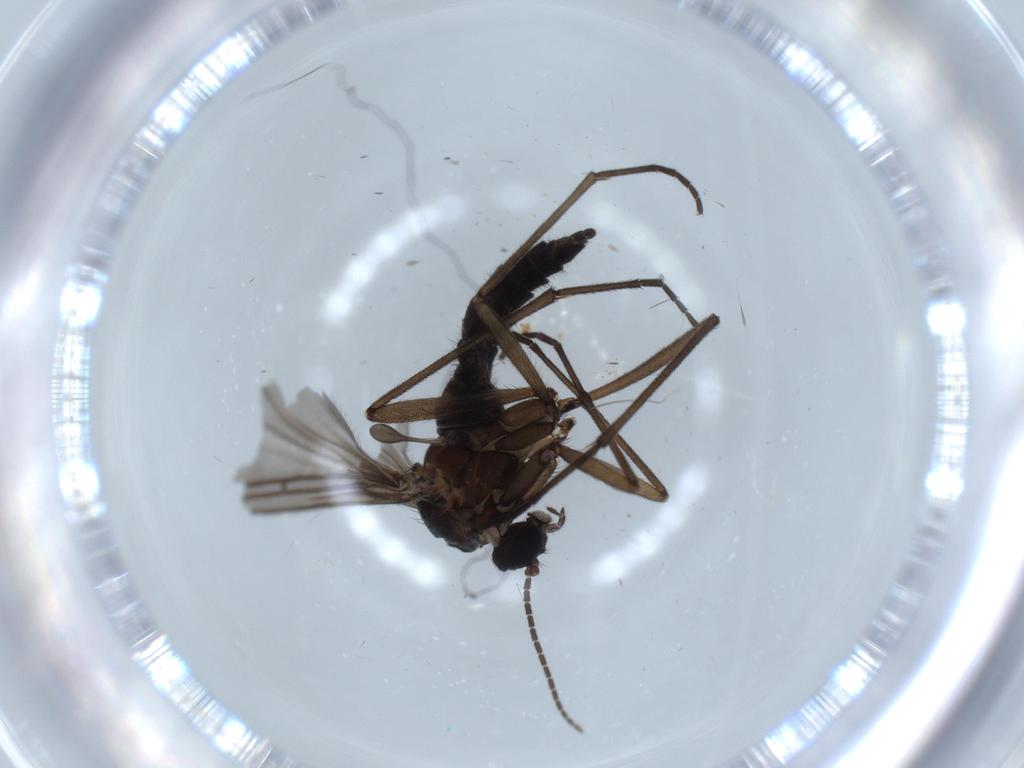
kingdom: Animalia
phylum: Arthropoda
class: Insecta
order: Diptera
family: Sciaridae
